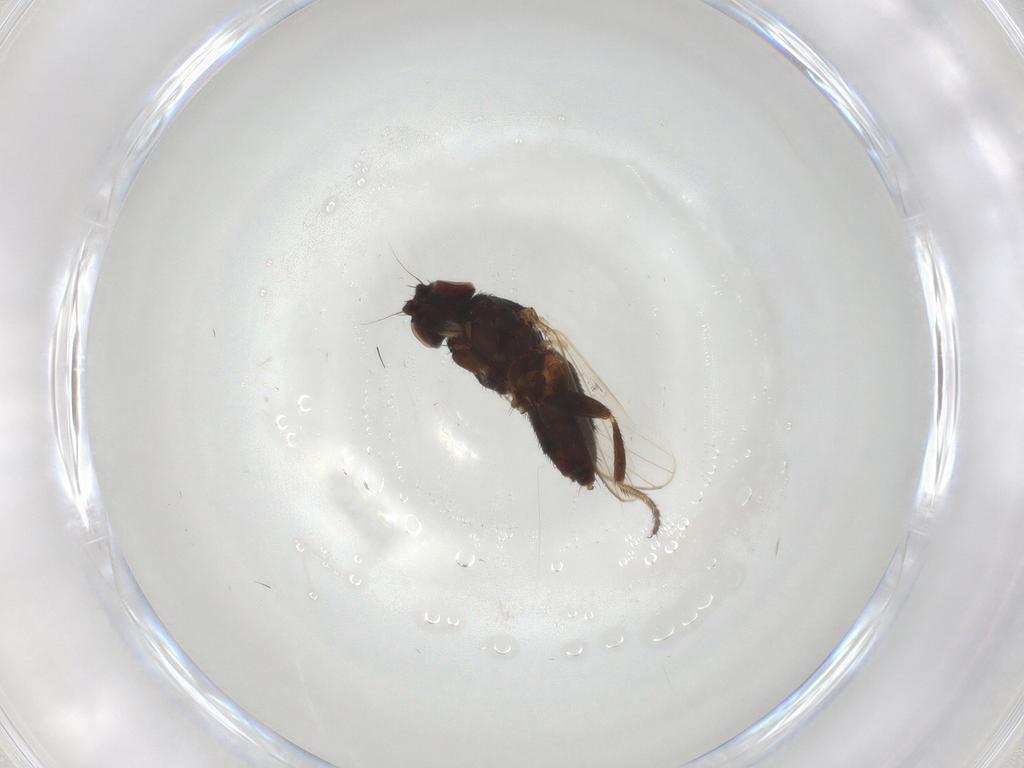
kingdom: Animalia
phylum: Arthropoda
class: Insecta
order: Diptera
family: Milichiidae
